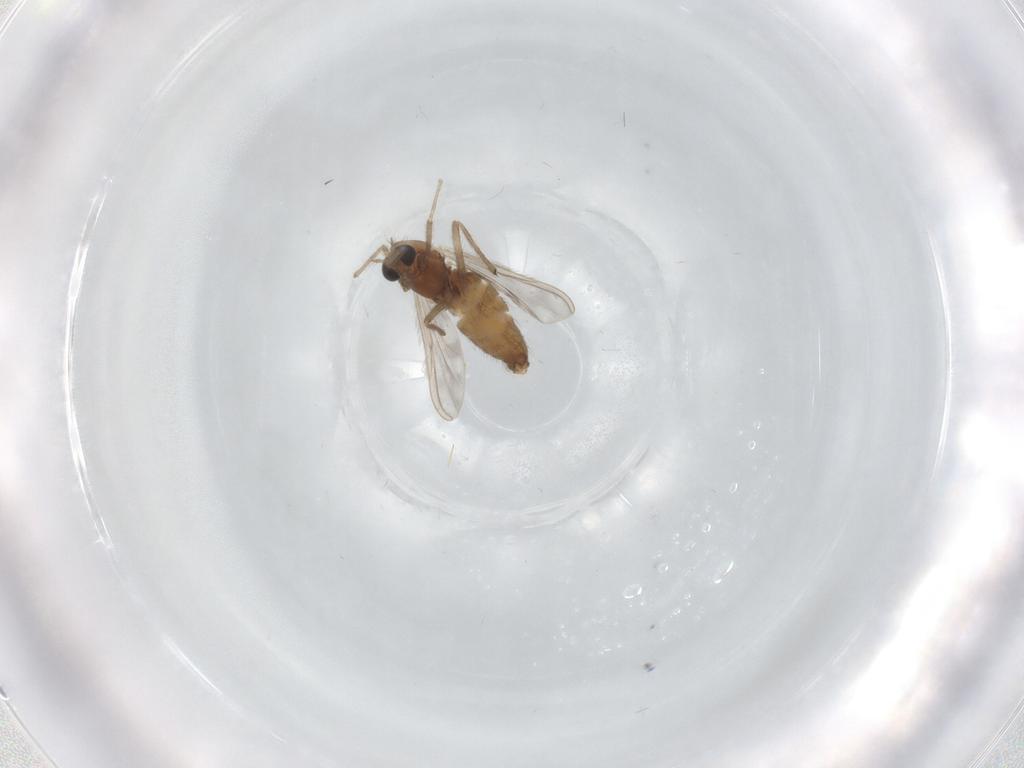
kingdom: Animalia
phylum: Arthropoda
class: Insecta
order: Diptera
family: Chironomidae
